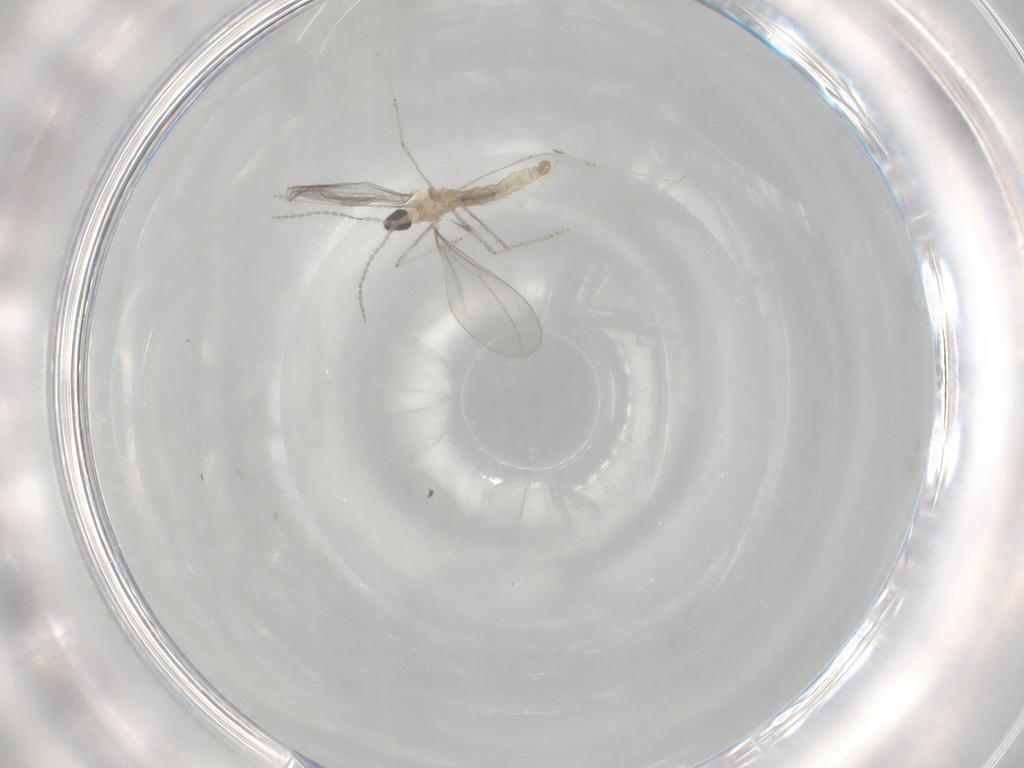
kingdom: Animalia
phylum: Arthropoda
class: Insecta
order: Diptera
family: Cecidomyiidae
